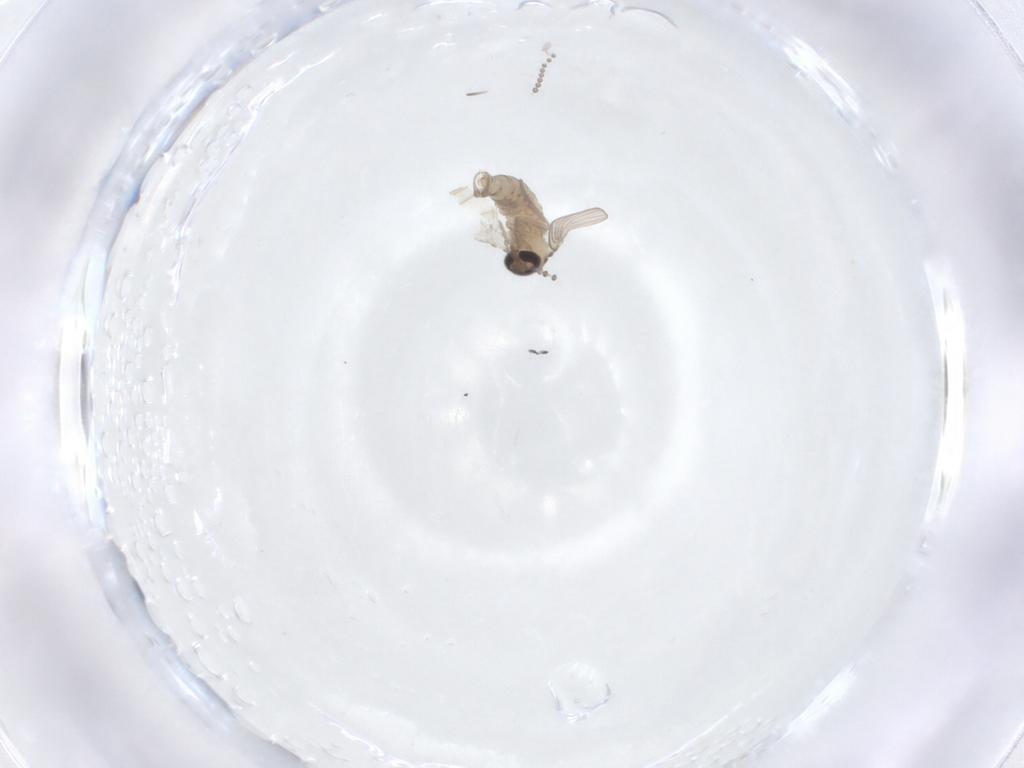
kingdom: Animalia
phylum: Arthropoda
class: Insecta
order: Diptera
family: Psychodidae
